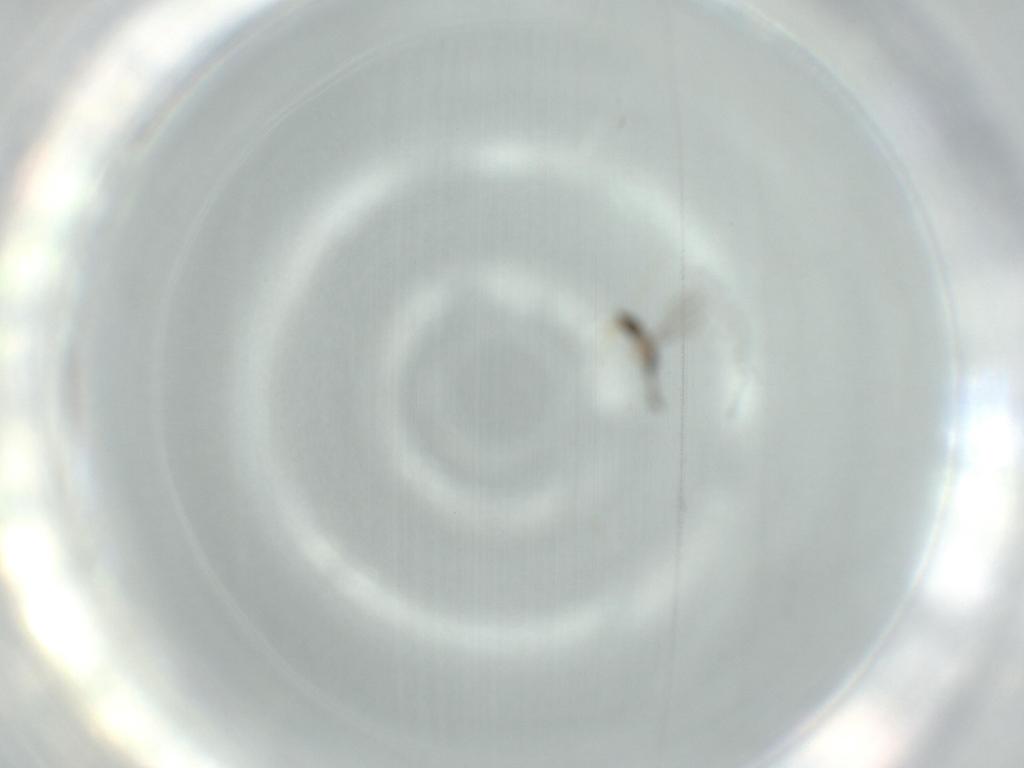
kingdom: Animalia
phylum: Arthropoda
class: Insecta
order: Hymenoptera
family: Mymaridae
